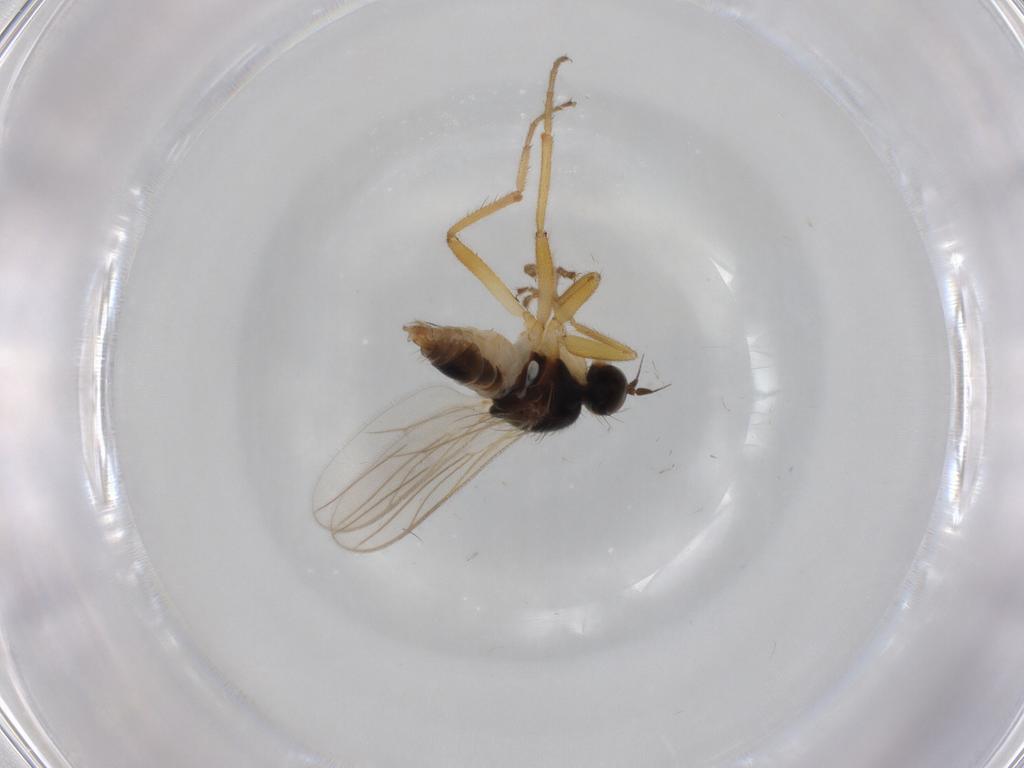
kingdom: Animalia
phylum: Arthropoda
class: Insecta
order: Diptera
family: Hybotidae
